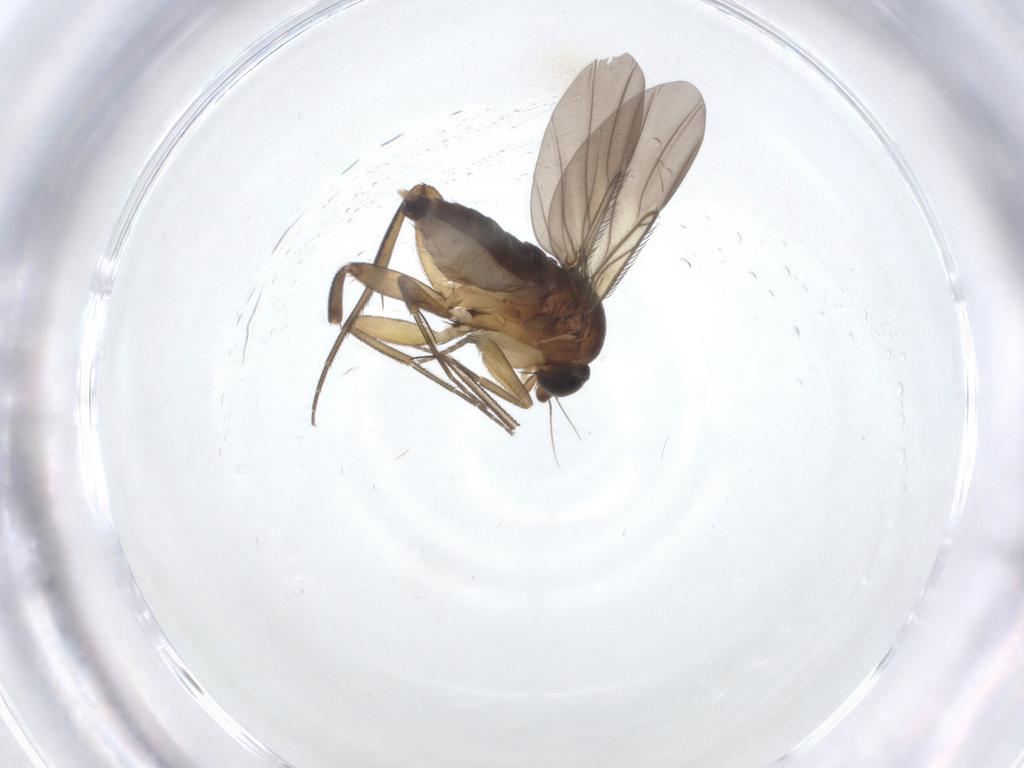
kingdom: Animalia
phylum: Arthropoda
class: Insecta
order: Diptera
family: Phoridae
